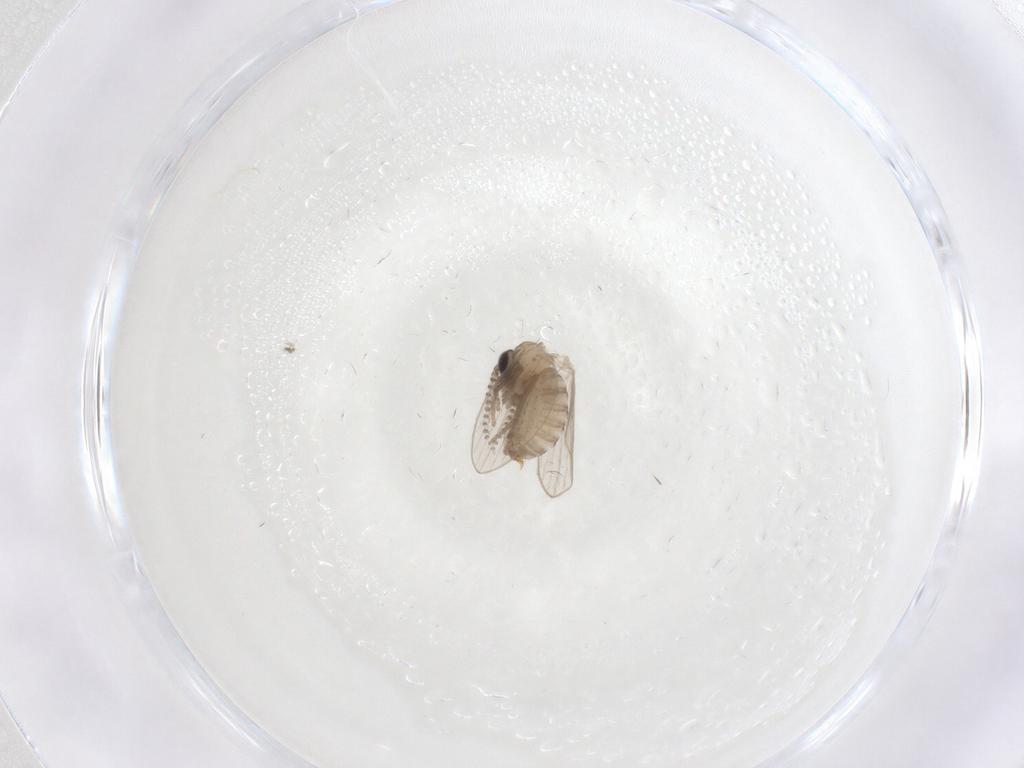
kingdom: Animalia
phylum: Arthropoda
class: Insecta
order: Diptera
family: Psychodidae
